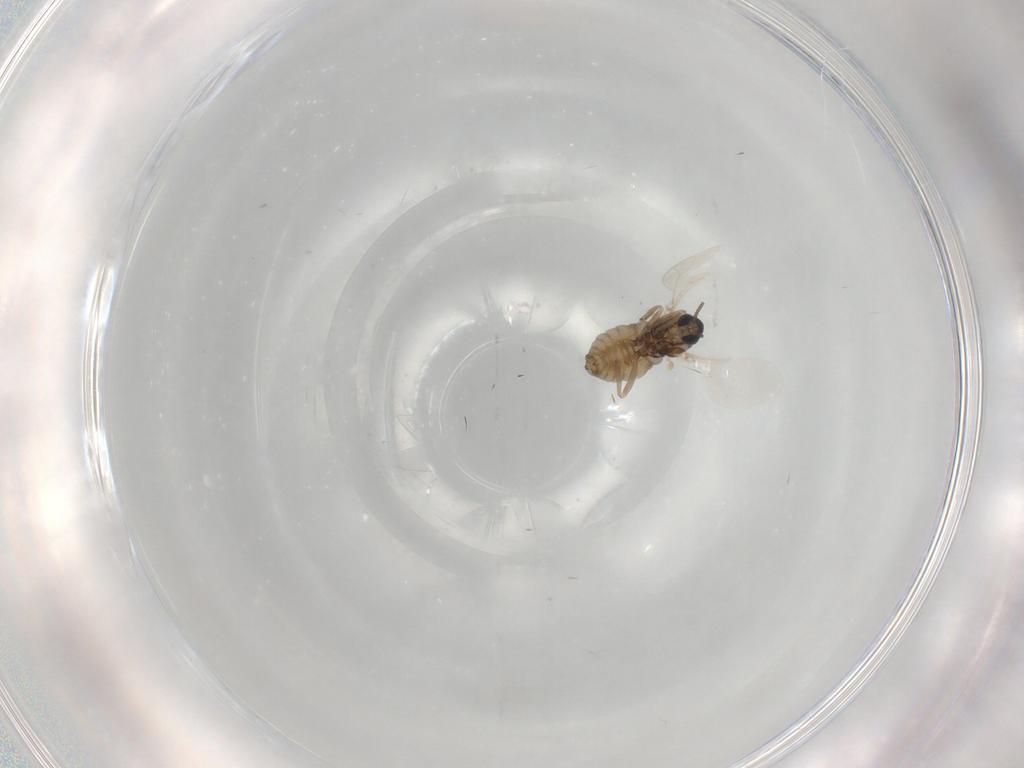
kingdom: Animalia
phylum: Arthropoda
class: Insecta
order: Diptera
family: Cecidomyiidae
